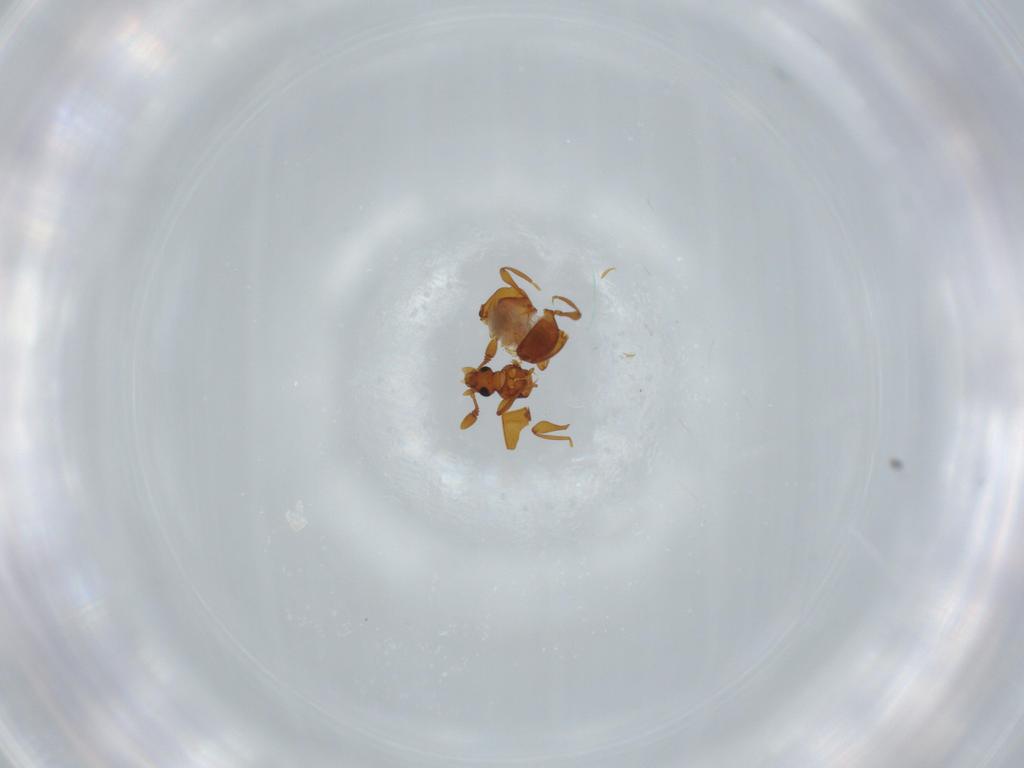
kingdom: Animalia
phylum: Arthropoda
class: Insecta
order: Coleoptera
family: Staphylinidae
